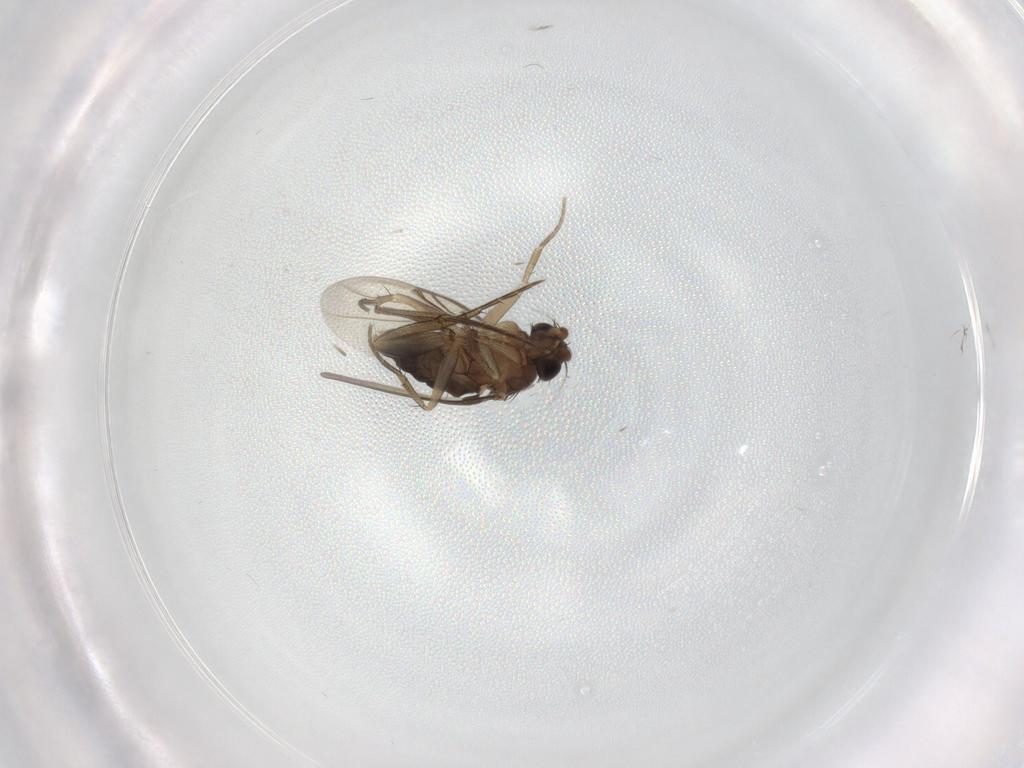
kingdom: Animalia
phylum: Arthropoda
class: Insecta
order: Diptera
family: Phoridae
